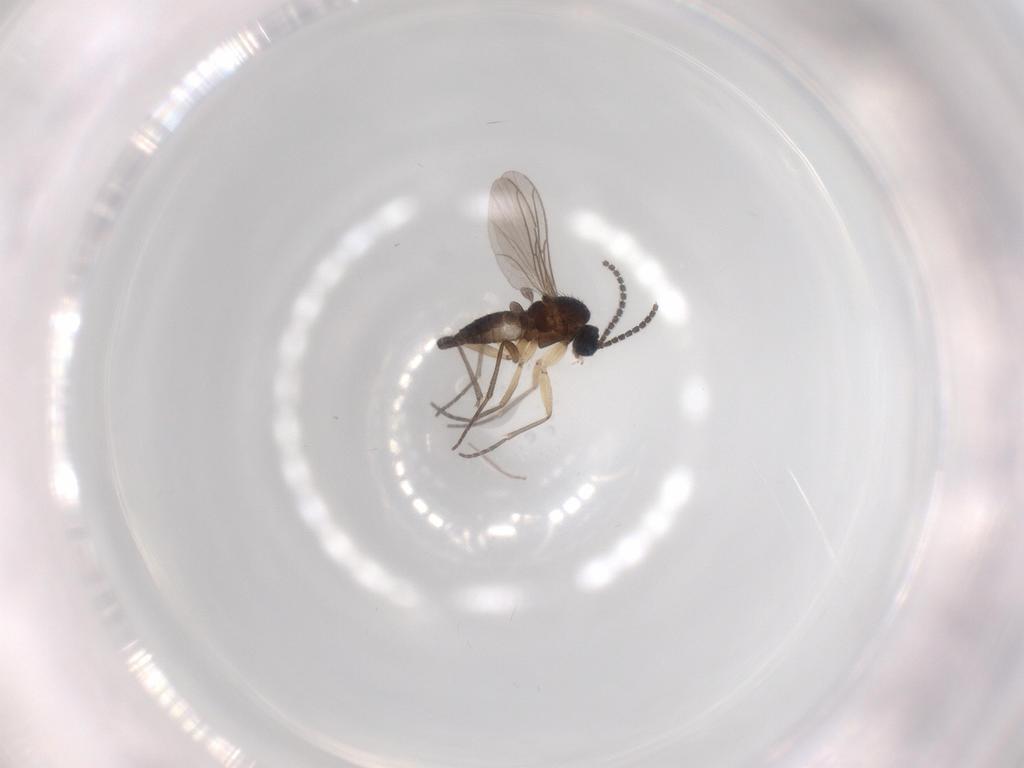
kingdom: Animalia
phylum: Arthropoda
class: Insecta
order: Diptera
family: Sciaridae
